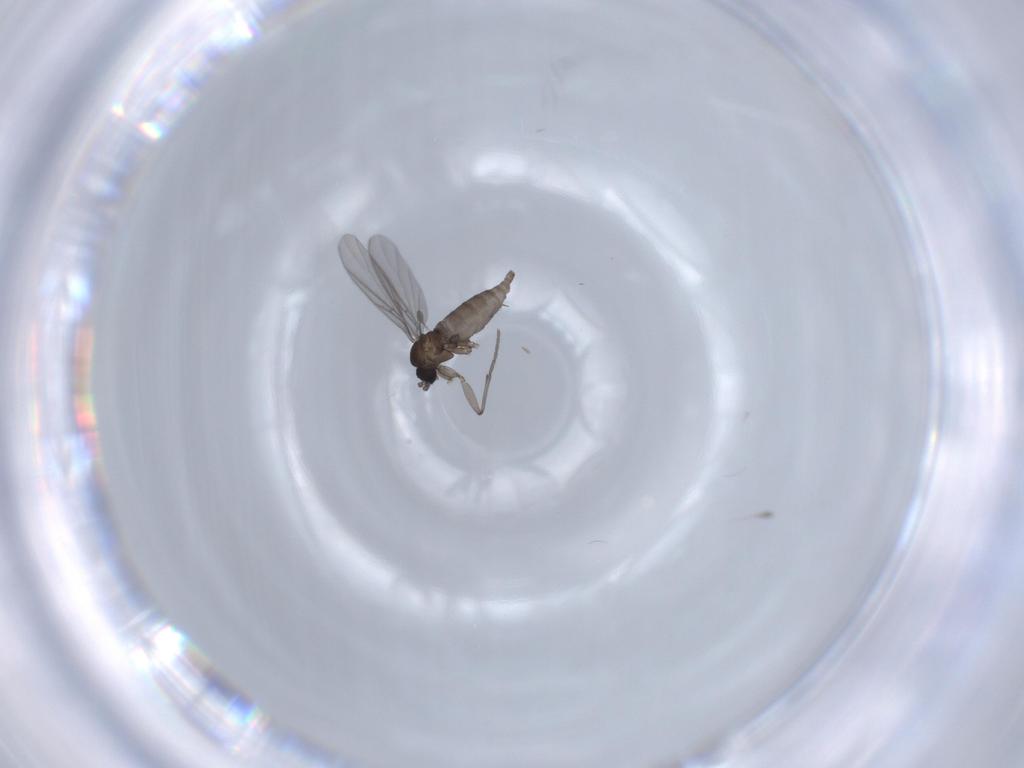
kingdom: Animalia
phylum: Arthropoda
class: Insecta
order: Diptera
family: Sciaridae
